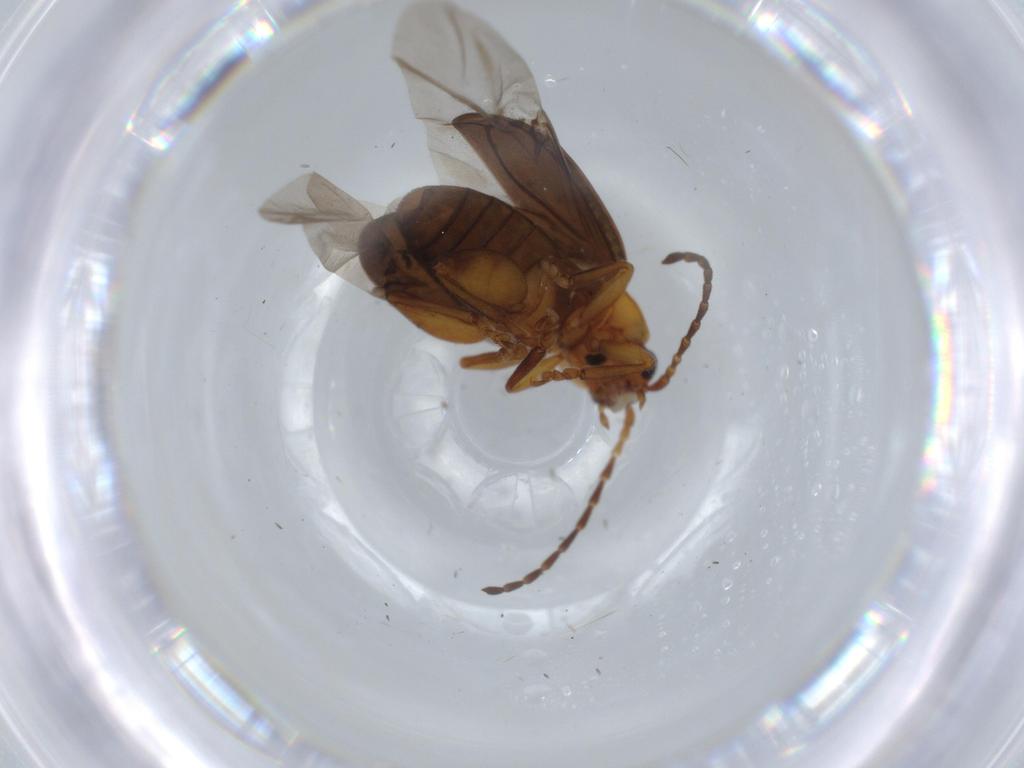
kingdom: Animalia
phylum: Arthropoda
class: Insecta
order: Coleoptera
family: Chrysomelidae
